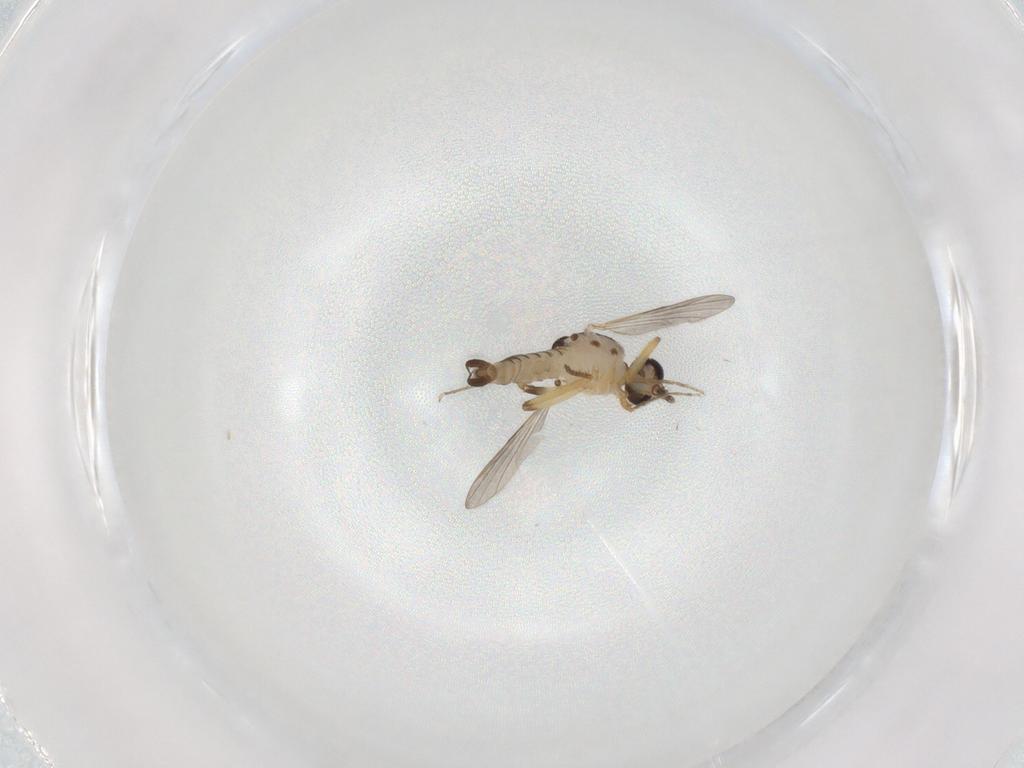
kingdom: Animalia
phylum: Arthropoda
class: Insecta
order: Diptera
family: Ceratopogonidae
